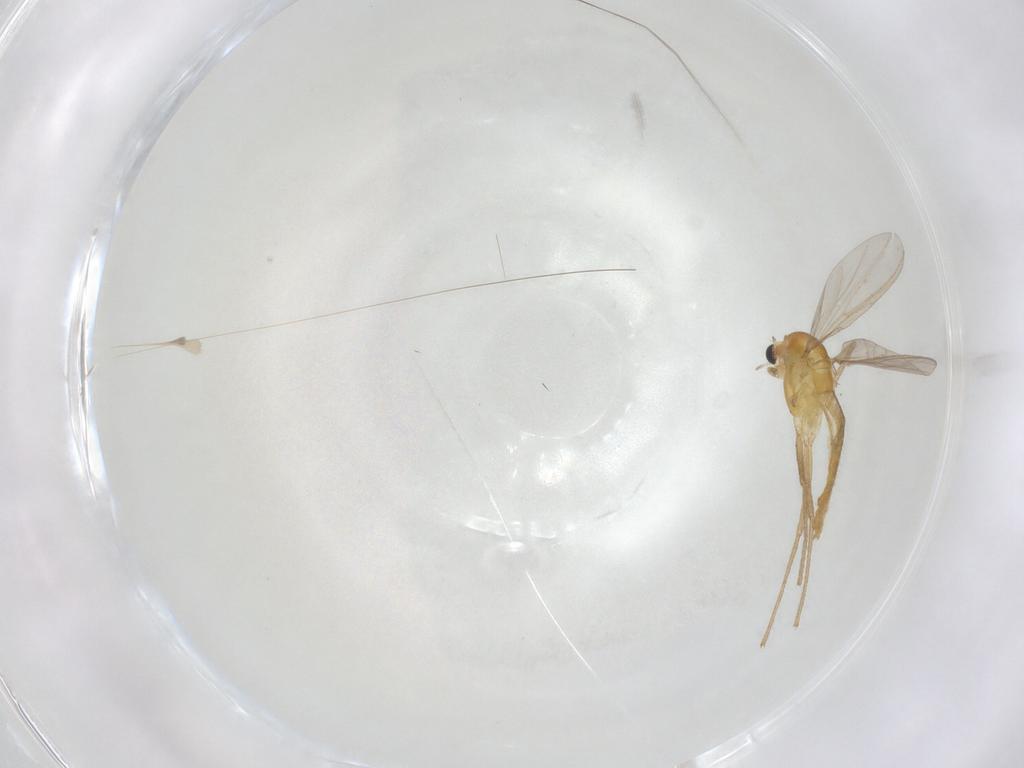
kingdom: Animalia
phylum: Arthropoda
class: Insecta
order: Diptera
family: Chironomidae
